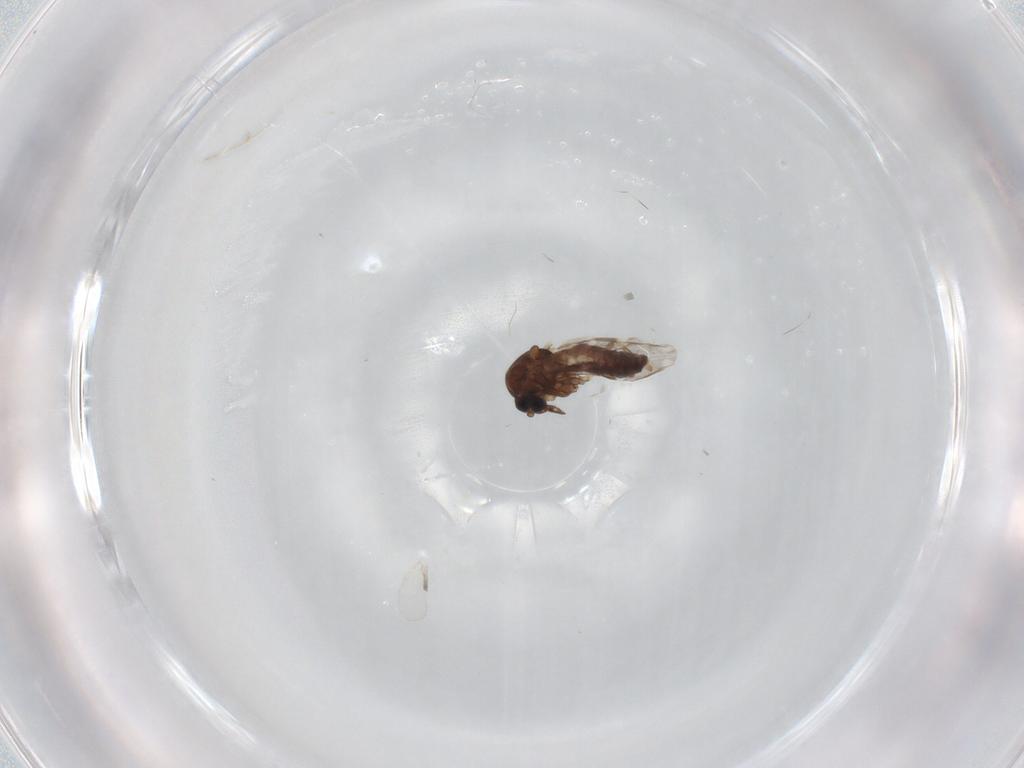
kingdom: Animalia
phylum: Arthropoda
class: Insecta
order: Diptera
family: Ceratopogonidae
